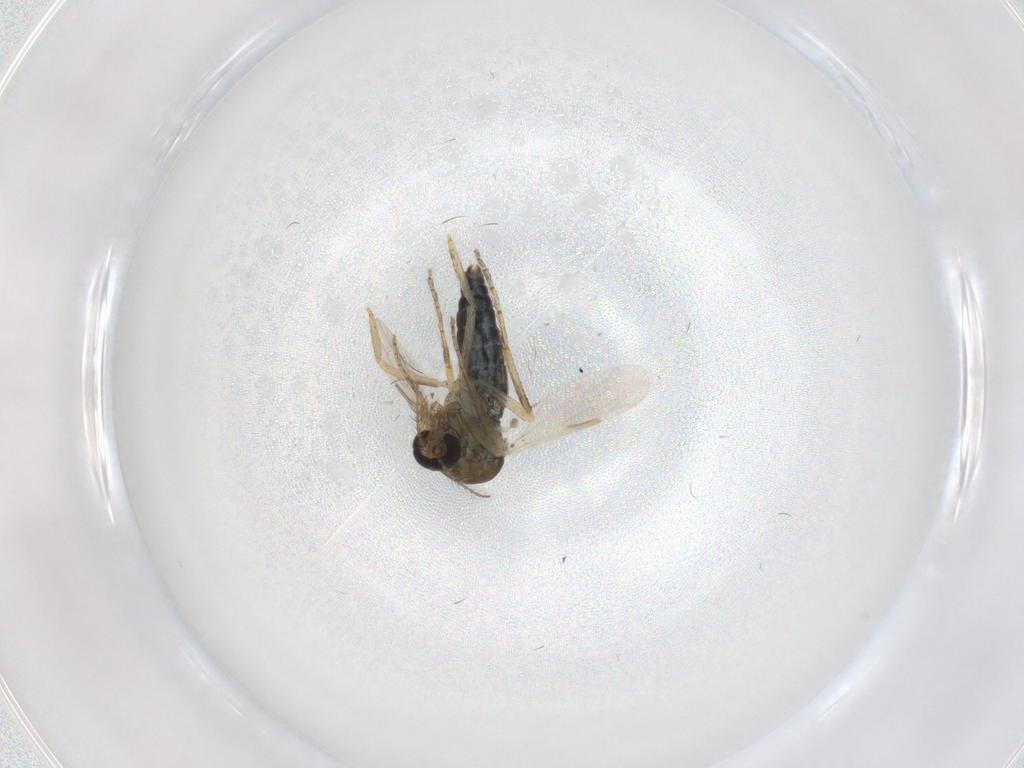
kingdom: Animalia
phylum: Arthropoda
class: Insecta
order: Diptera
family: Ceratopogonidae
